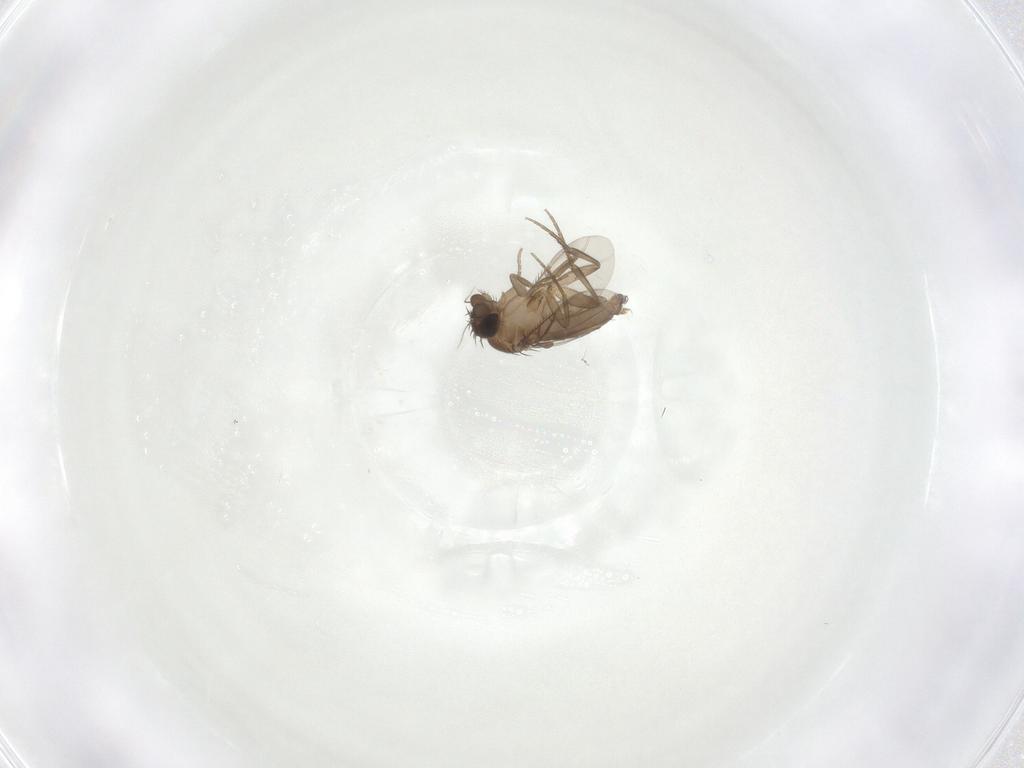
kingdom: Animalia
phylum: Arthropoda
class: Insecta
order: Diptera
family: Phoridae
